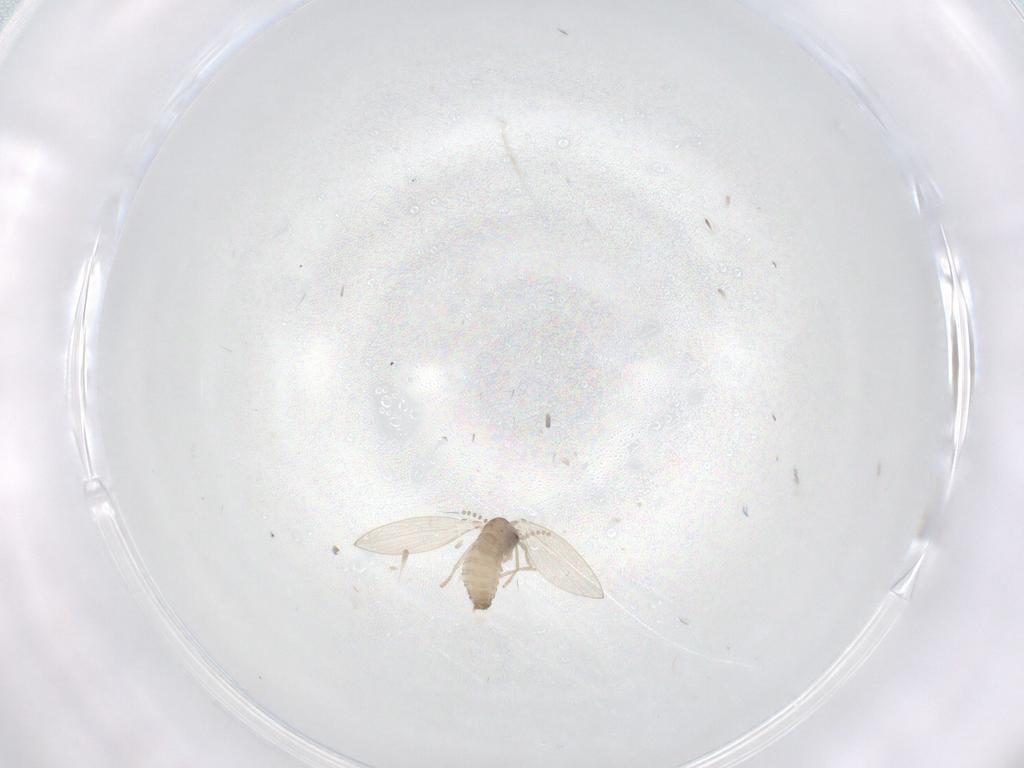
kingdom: Animalia
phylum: Arthropoda
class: Insecta
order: Diptera
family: Psychodidae
